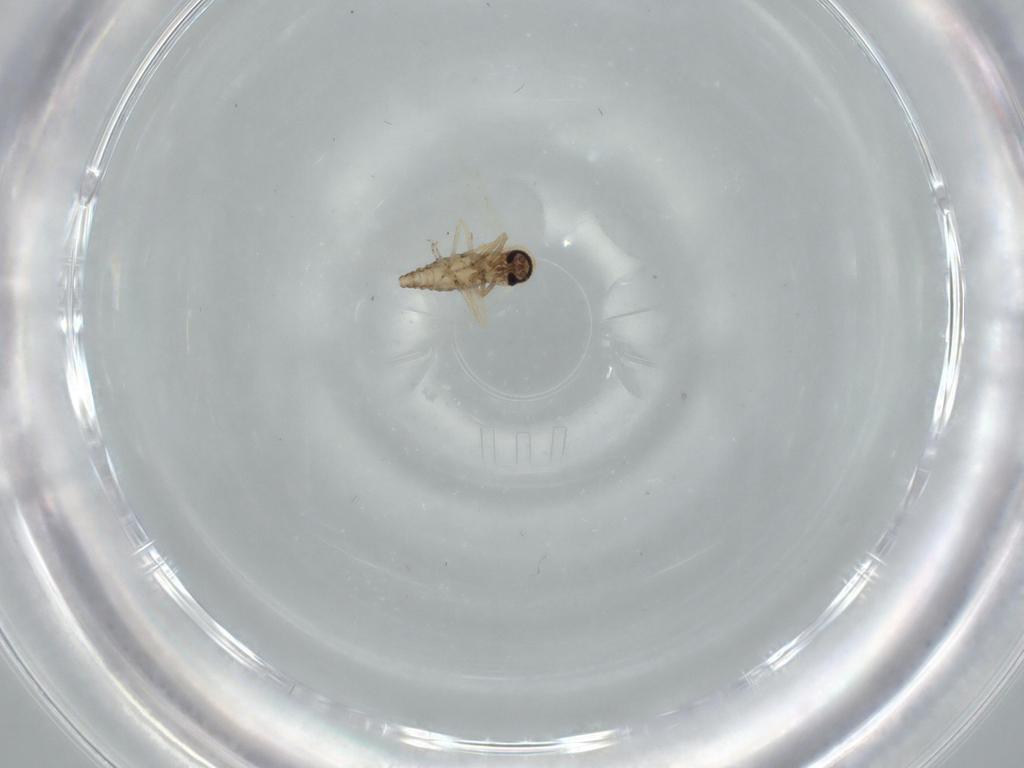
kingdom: Animalia
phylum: Arthropoda
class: Insecta
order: Diptera
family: Ceratopogonidae
